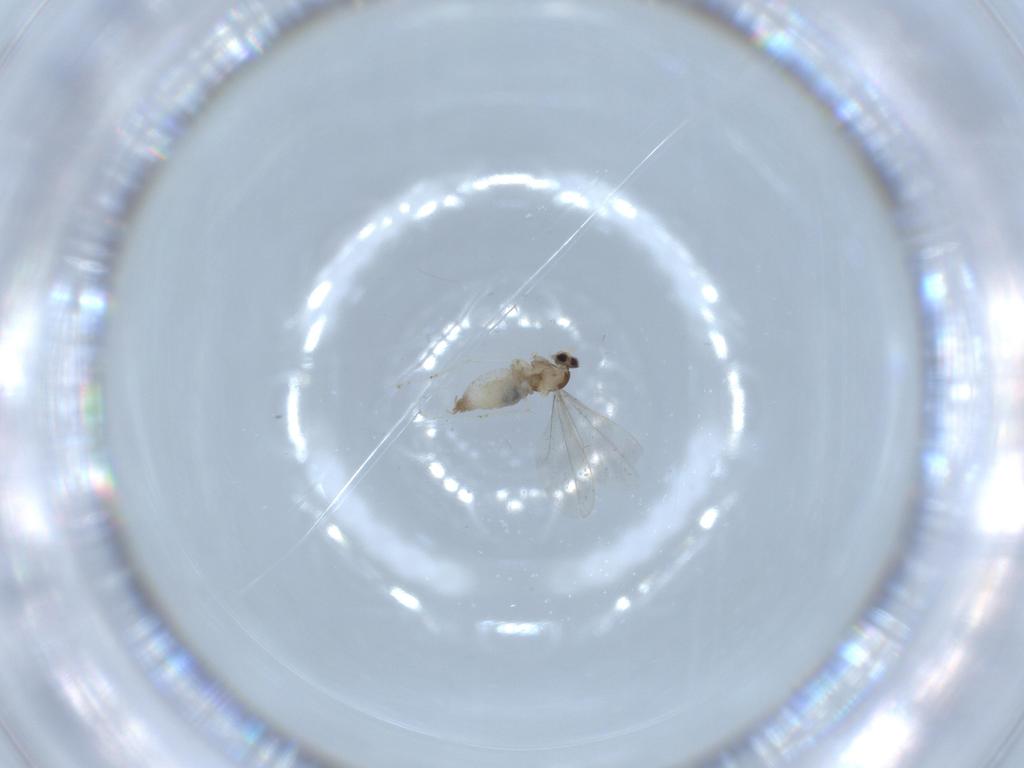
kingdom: Animalia
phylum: Arthropoda
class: Insecta
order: Diptera
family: Cecidomyiidae
